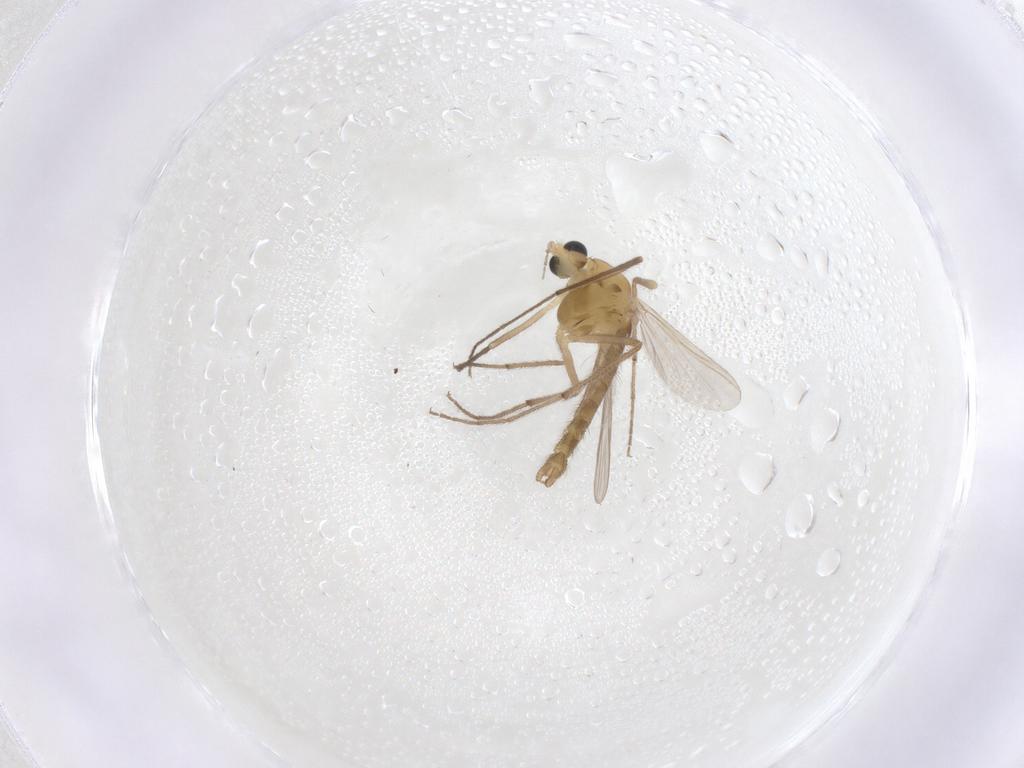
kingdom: Animalia
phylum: Arthropoda
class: Insecta
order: Diptera
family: Chironomidae
